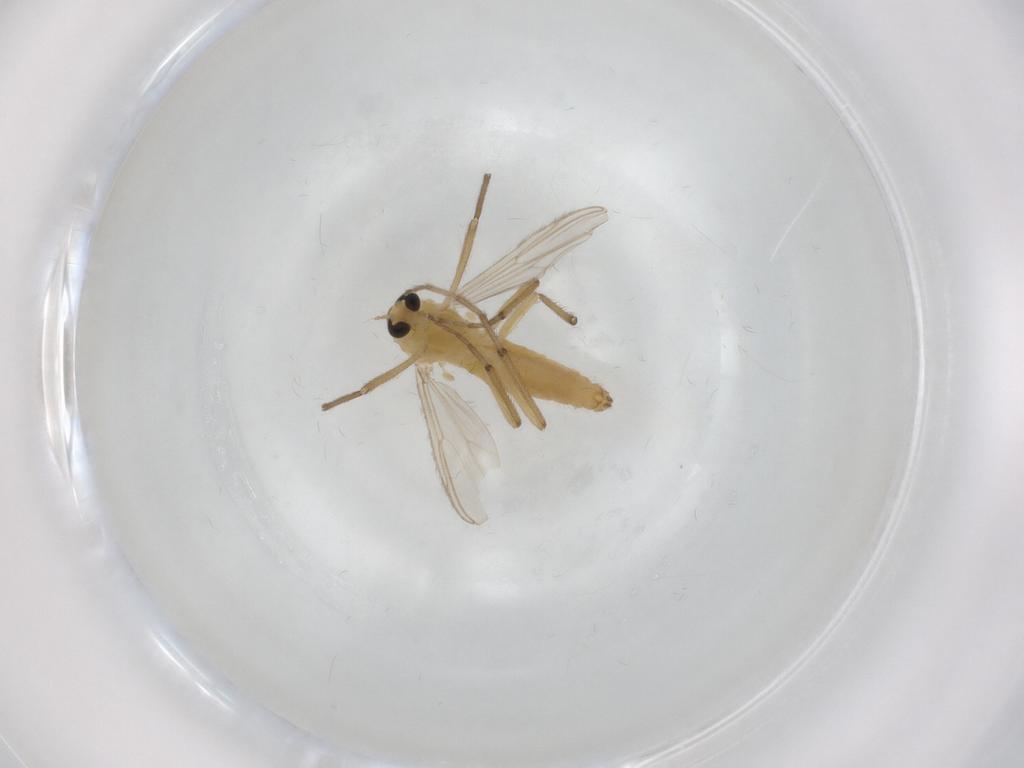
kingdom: Animalia
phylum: Arthropoda
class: Insecta
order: Diptera
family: Chironomidae
